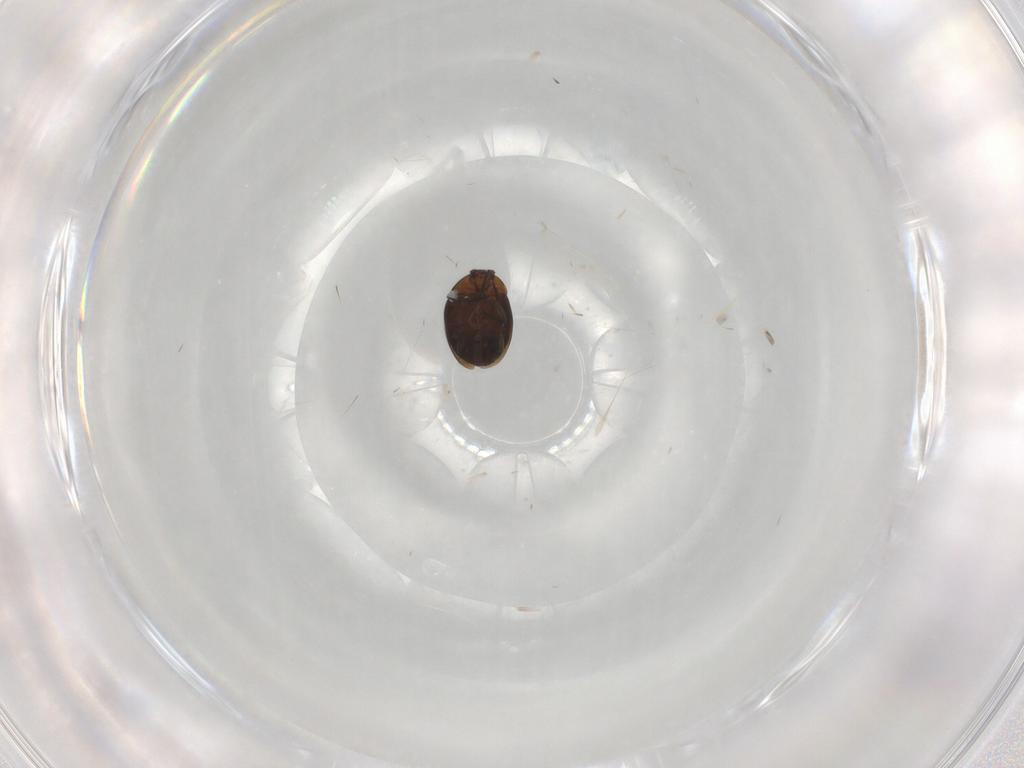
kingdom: Animalia
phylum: Arthropoda
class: Insecta
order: Coleoptera
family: Corylophidae
